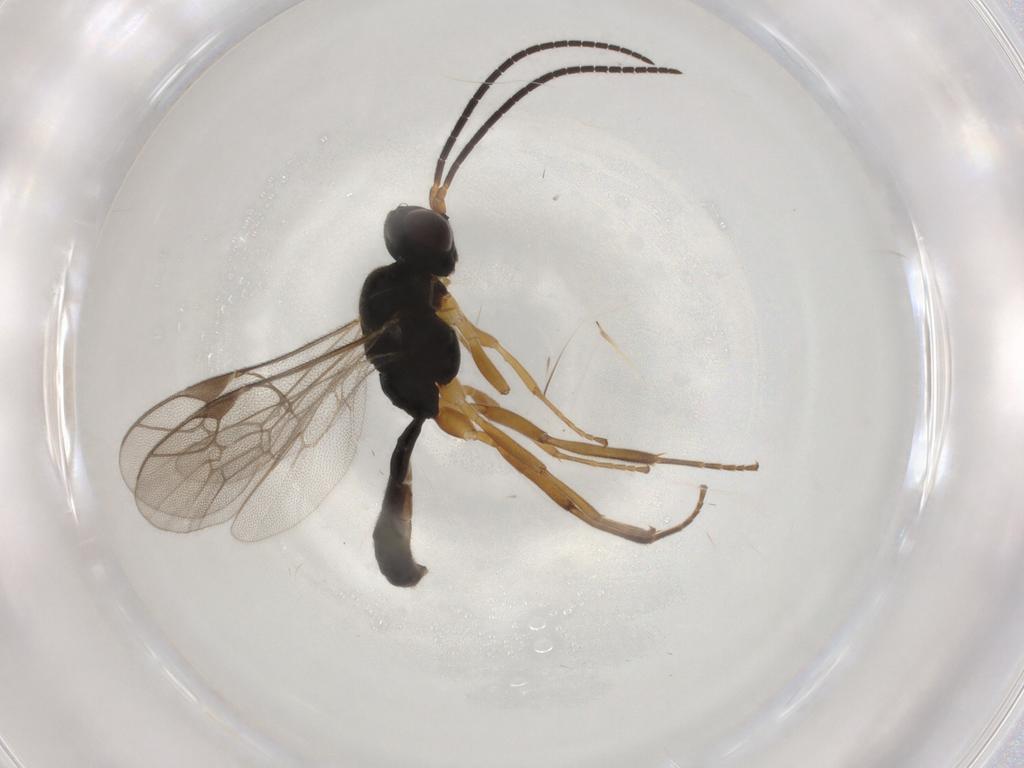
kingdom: Animalia
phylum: Arthropoda
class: Insecta
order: Hymenoptera
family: Ichneumonidae
